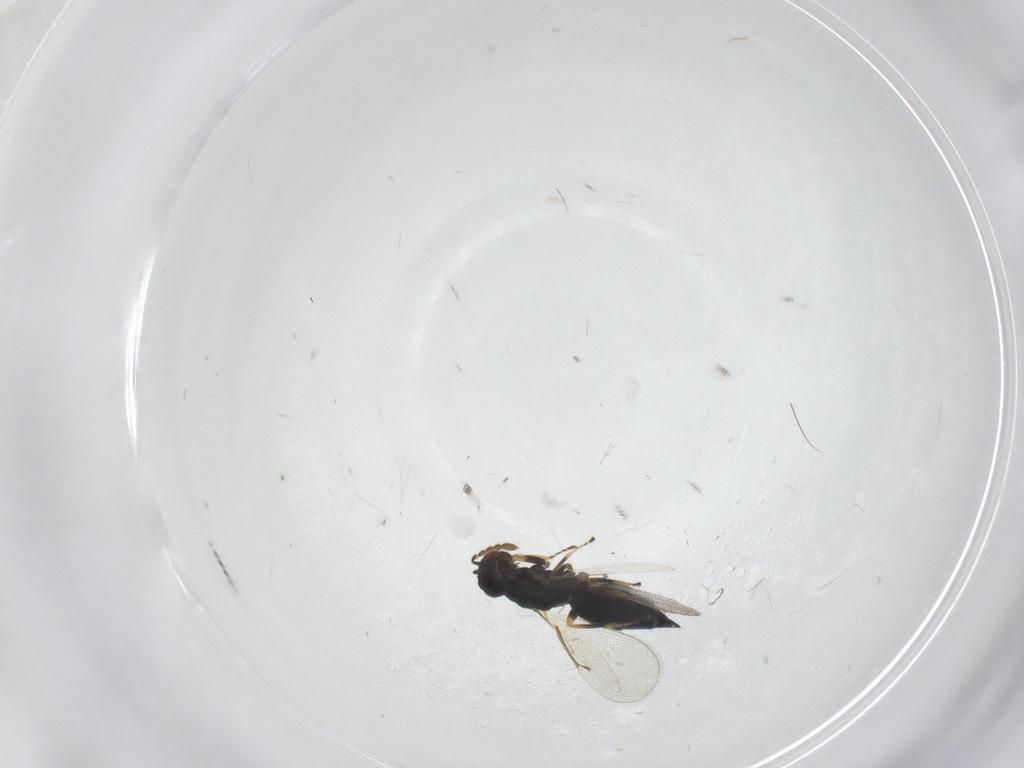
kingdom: Animalia
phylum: Arthropoda
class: Insecta
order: Hymenoptera
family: Eulophidae
